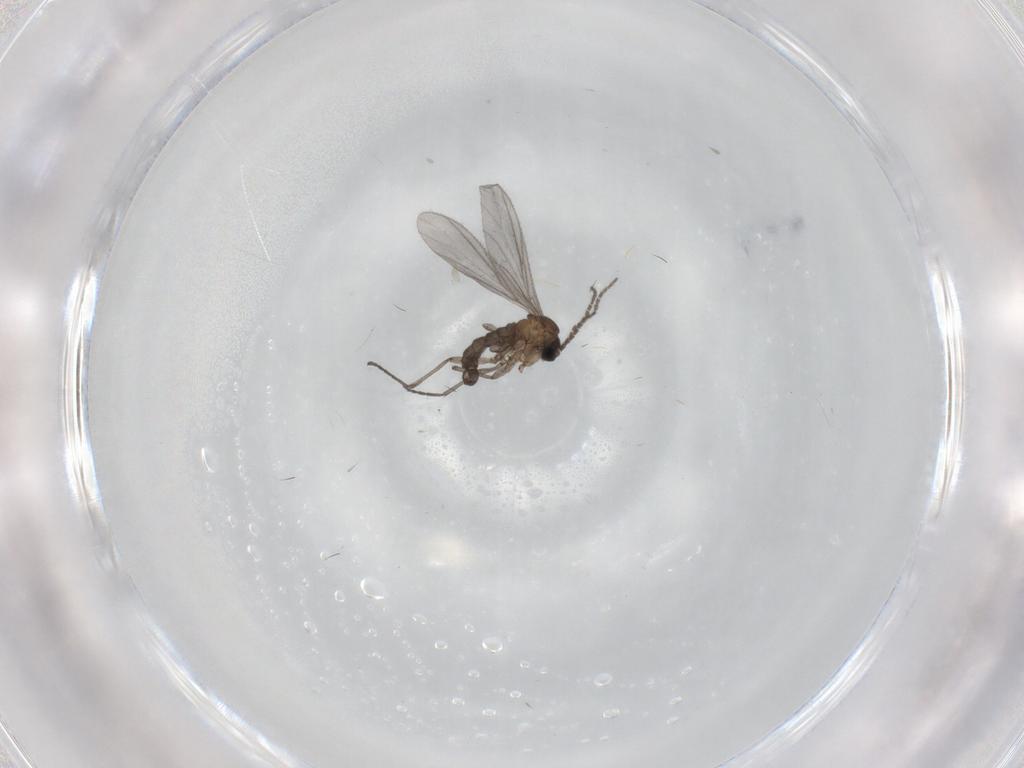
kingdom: Animalia
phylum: Arthropoda
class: Insecta
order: Diptera
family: Sciaridae
